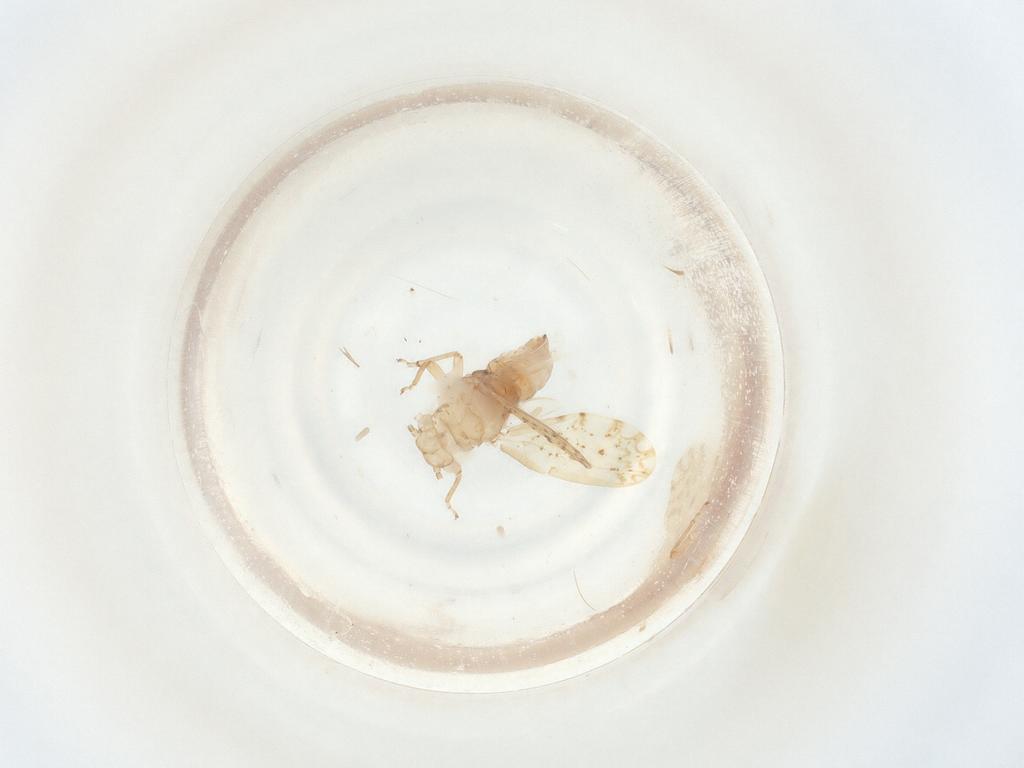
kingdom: Animalia
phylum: Arthropoda
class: Insecta
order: Hemiptera
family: Psylloidea_incertae_sedis
